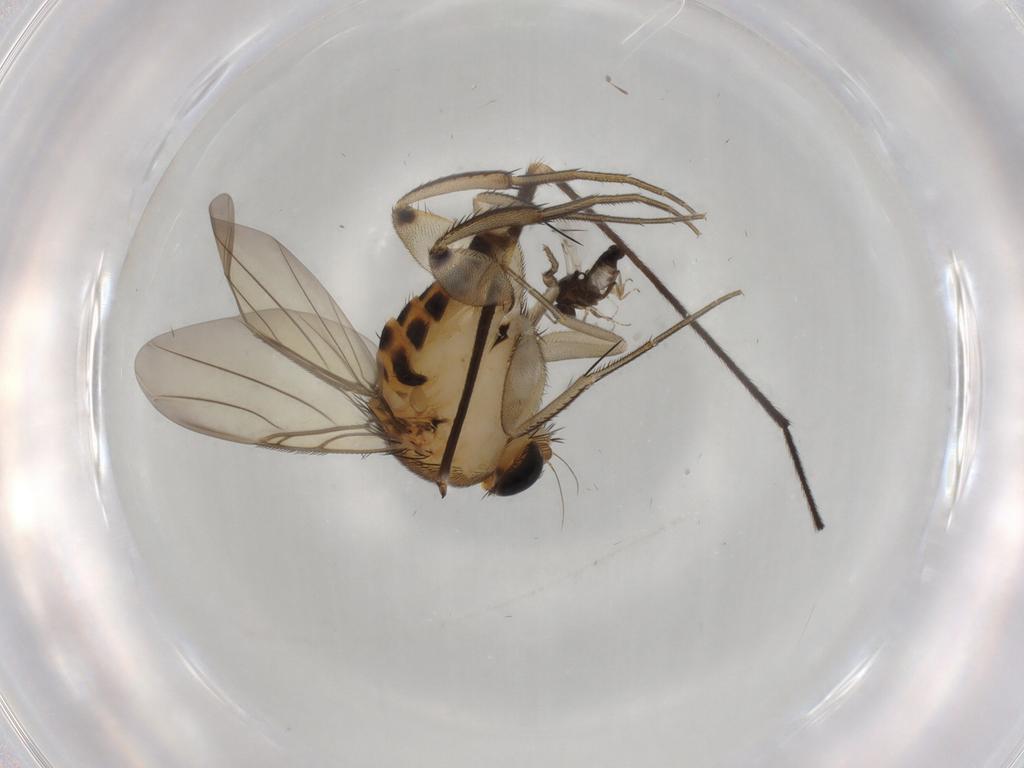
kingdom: Animalia
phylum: Arthropoda
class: Insecta
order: Diptera
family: Phoridae
